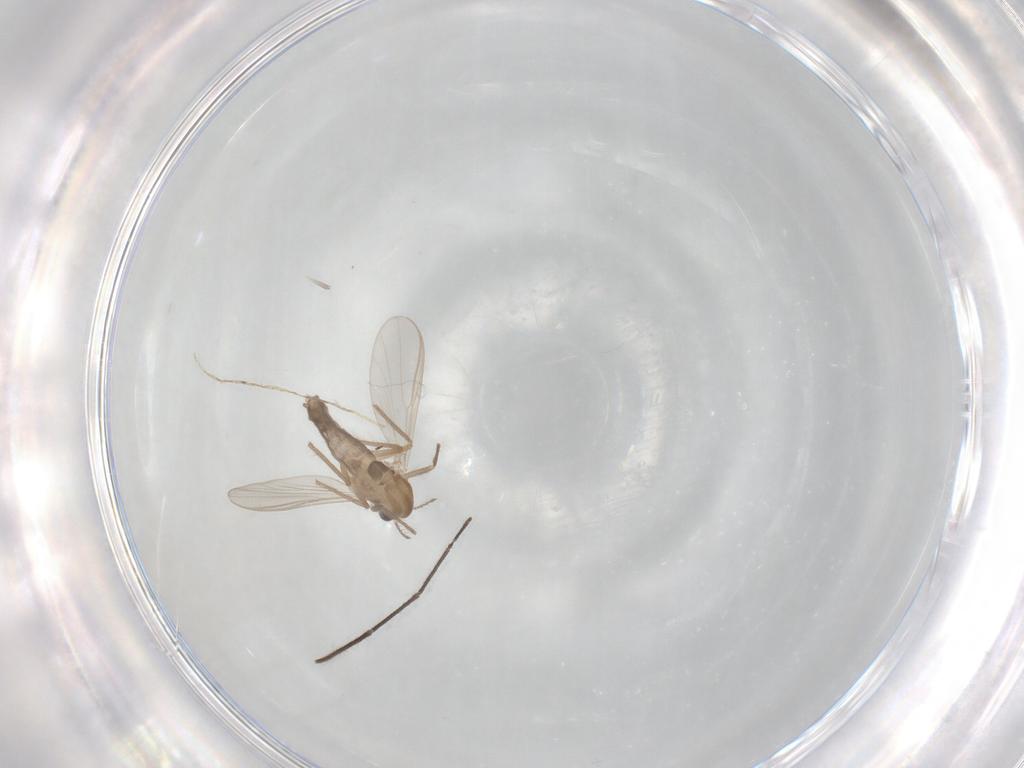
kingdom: Animalia
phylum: Arthropoda
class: Insecta
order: Diptera
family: Chironomidae
